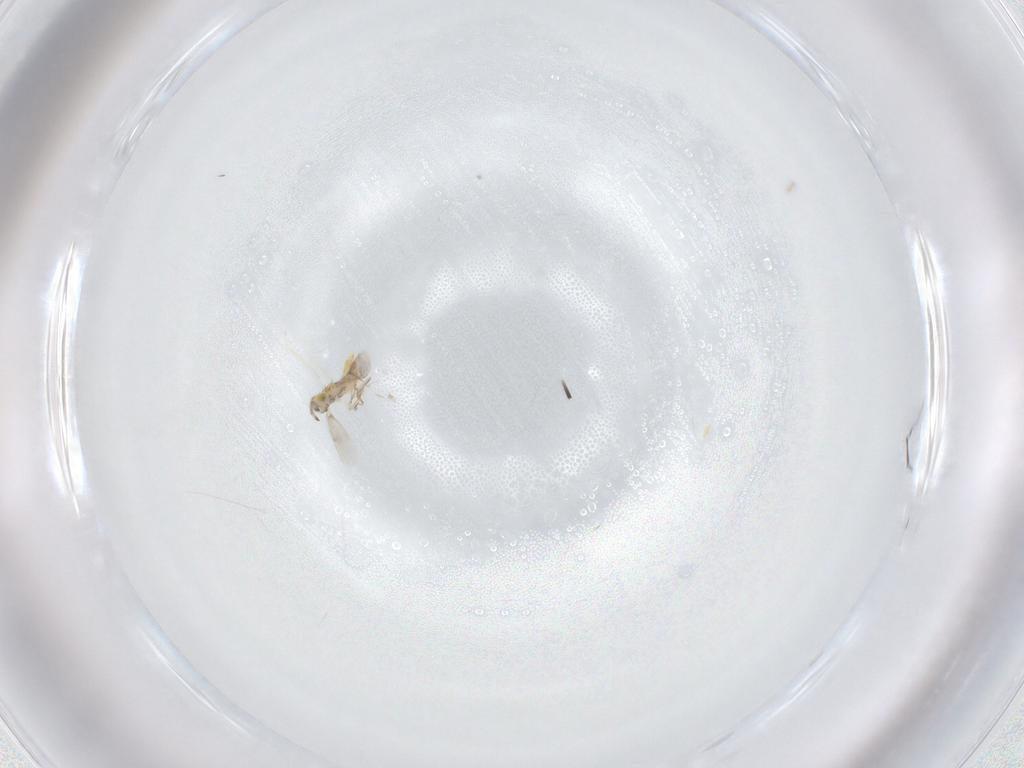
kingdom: Animalia
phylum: Arthropoda
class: Insecta
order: Hymenoptera
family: Aphelinidae
